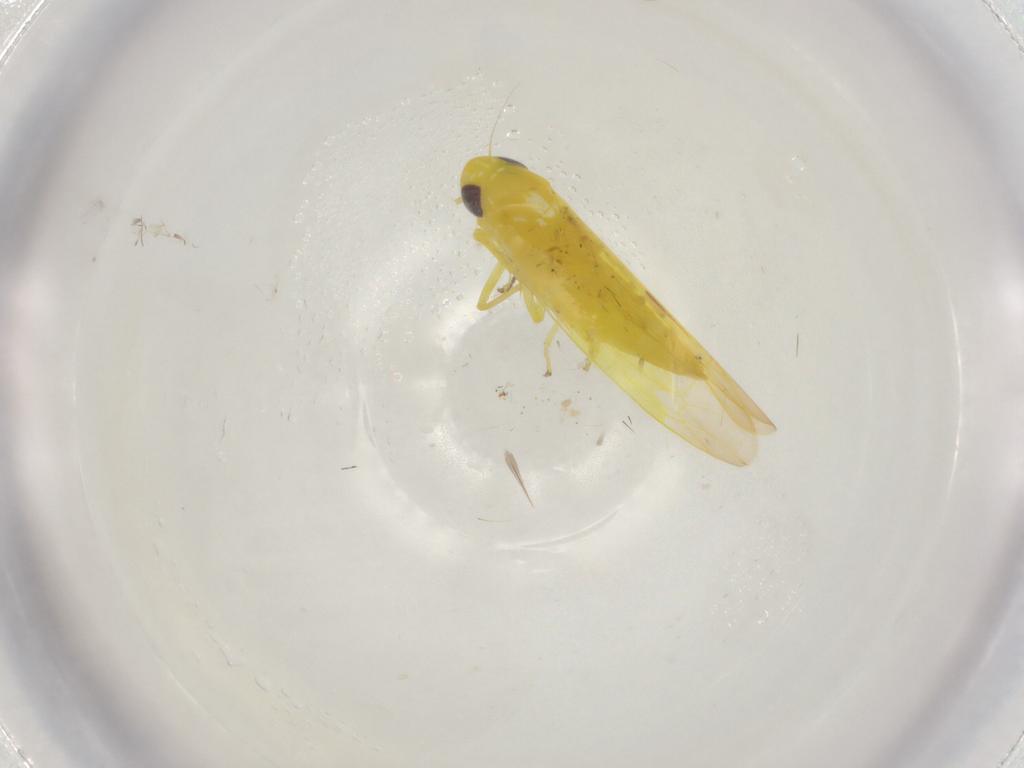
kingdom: Animalia
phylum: Arthropoda
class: Insecta
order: Hemiptera
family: Cicadellidae
